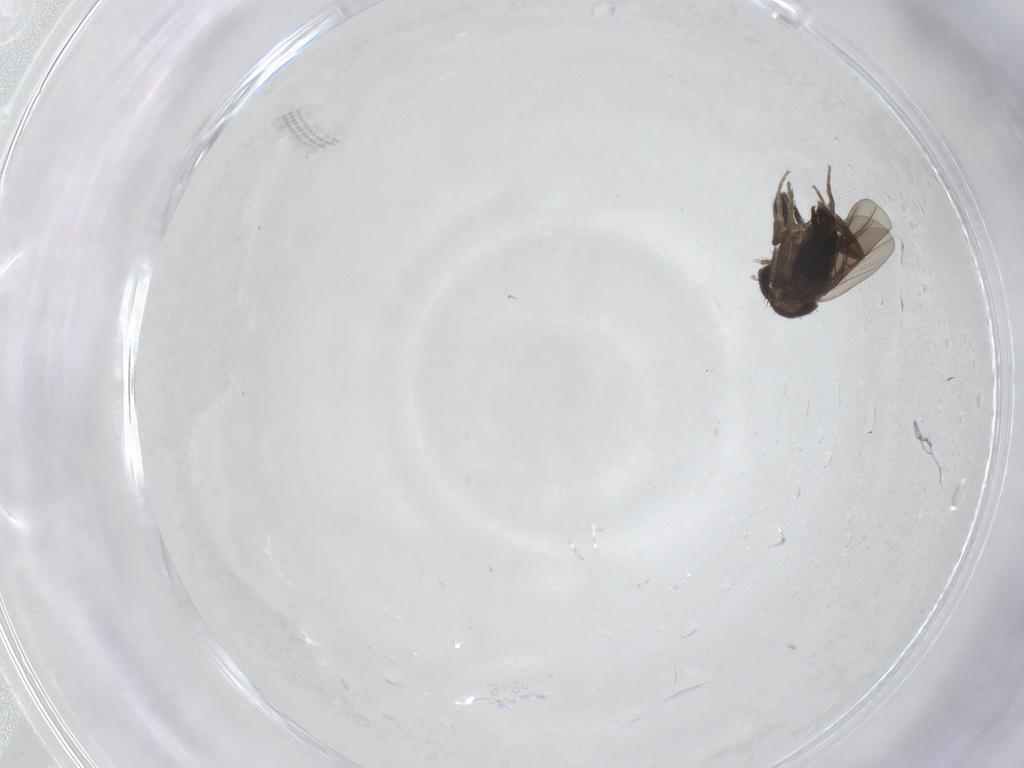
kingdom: Animalia
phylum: Arthropoda
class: Insecta
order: Diptera
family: Phoridae
